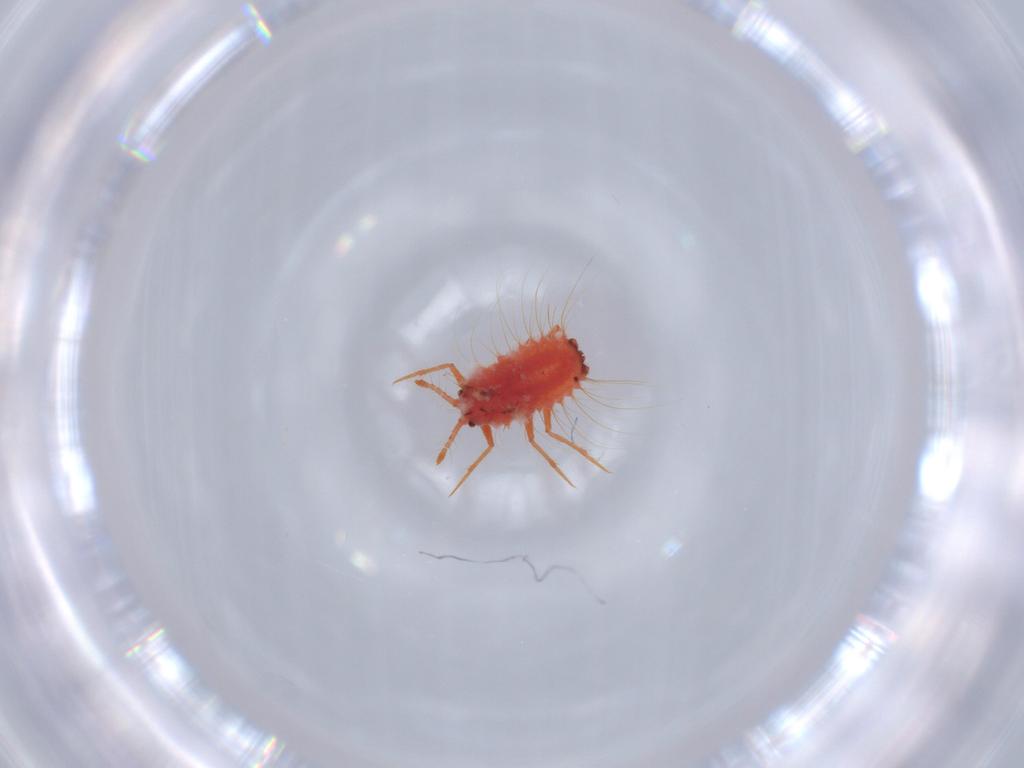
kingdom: Animalia
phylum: Arthropoda
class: Insecta
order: Hemiptera
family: Monophlebidae
